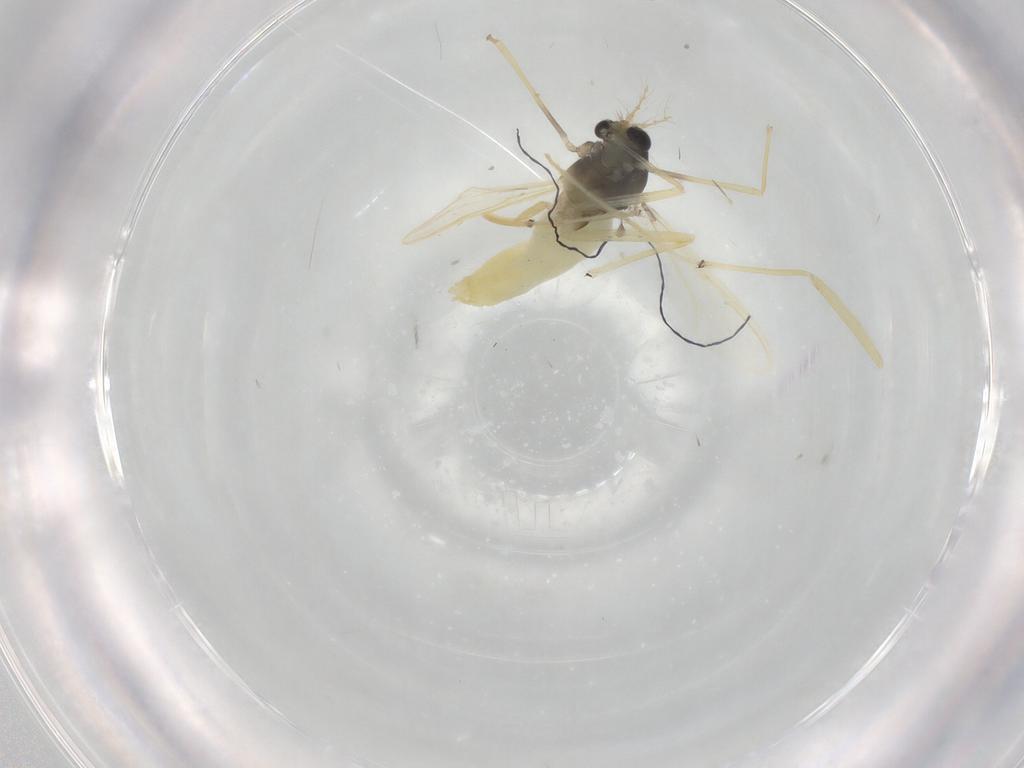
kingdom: Animalia
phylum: Arthropoda
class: Insecta
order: Diptera
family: Chironomidae
